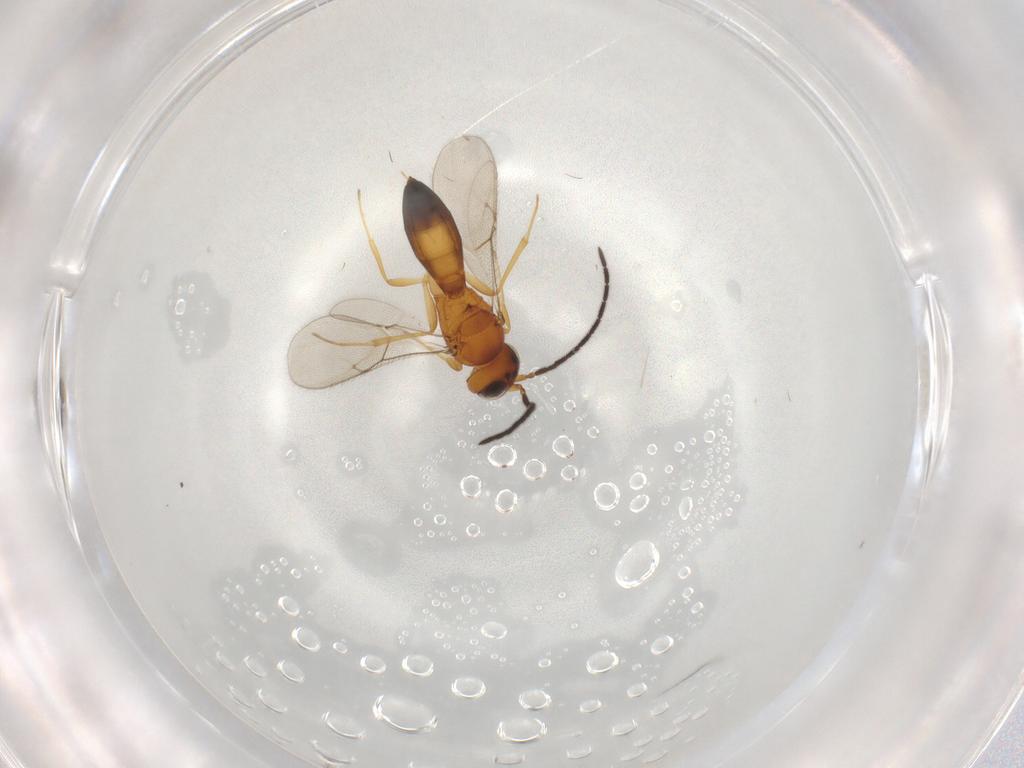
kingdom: Animalia
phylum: Arthropoda
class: Insecta
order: Hymenoptera
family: Scelionidae
